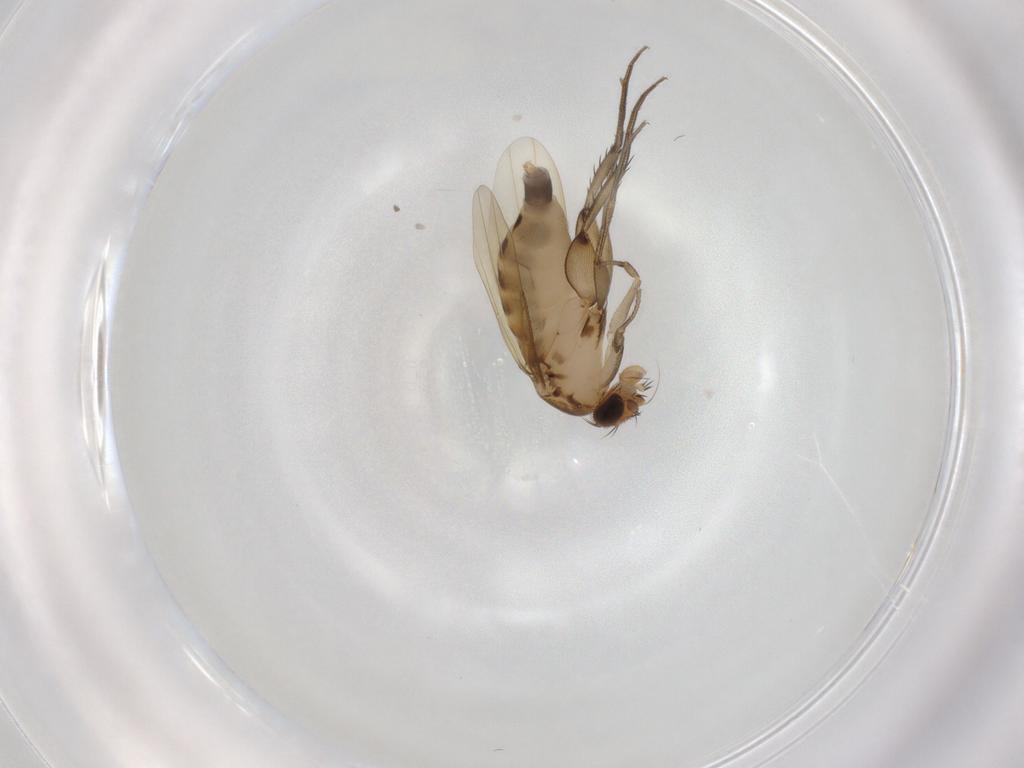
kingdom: Animalia
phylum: Arthropoda
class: Insecta
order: Diptera
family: Phoridae
